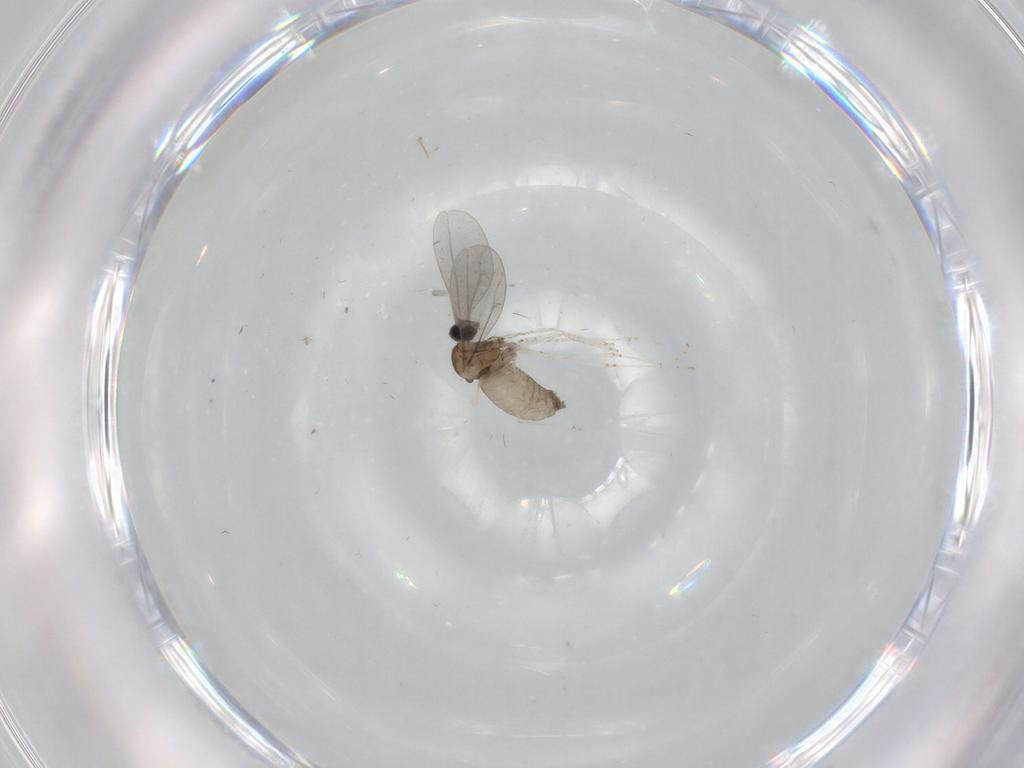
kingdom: Animalia
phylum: Arthropoda
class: Insecta
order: Diptera
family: Sciaridae
